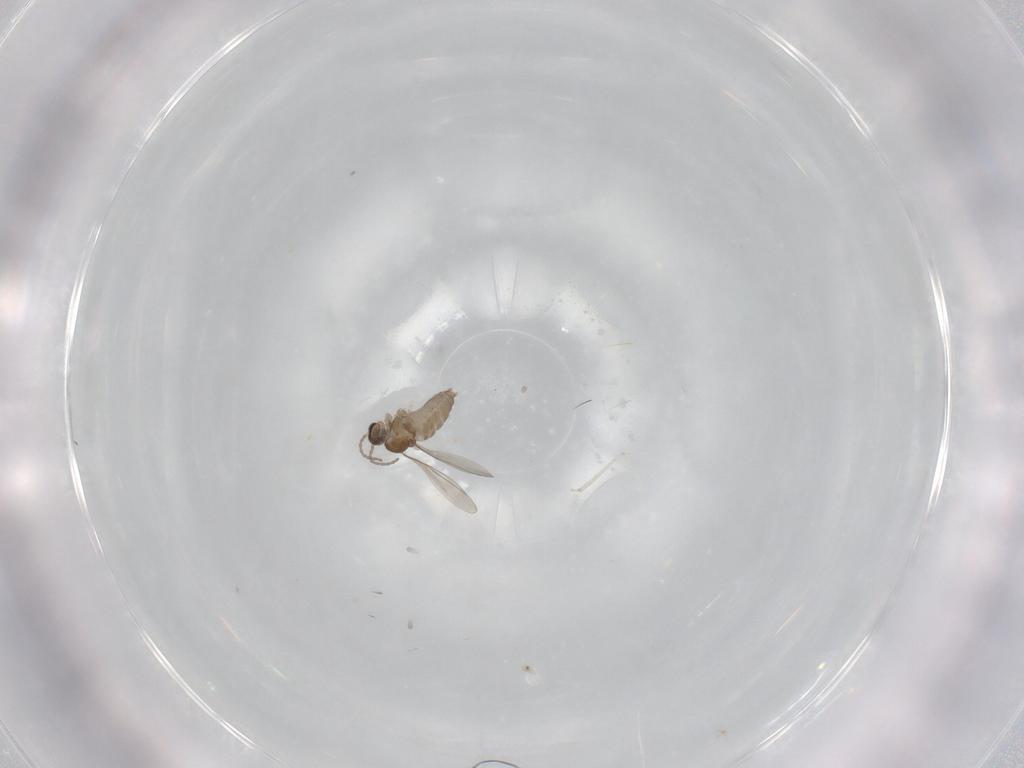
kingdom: Animalia
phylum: Arthropoda
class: Insecta
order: Diptera
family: Cecidomyiidae
